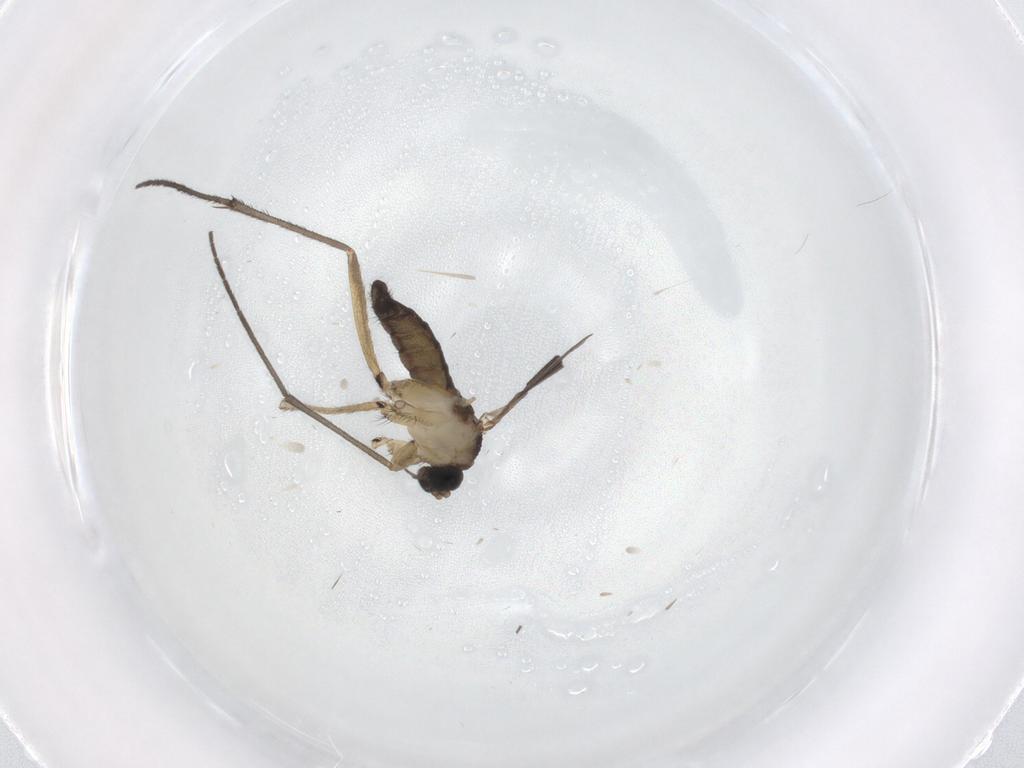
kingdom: Animalia
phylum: Arthropoda
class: Insecta
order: Diptera
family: Sciaridae
